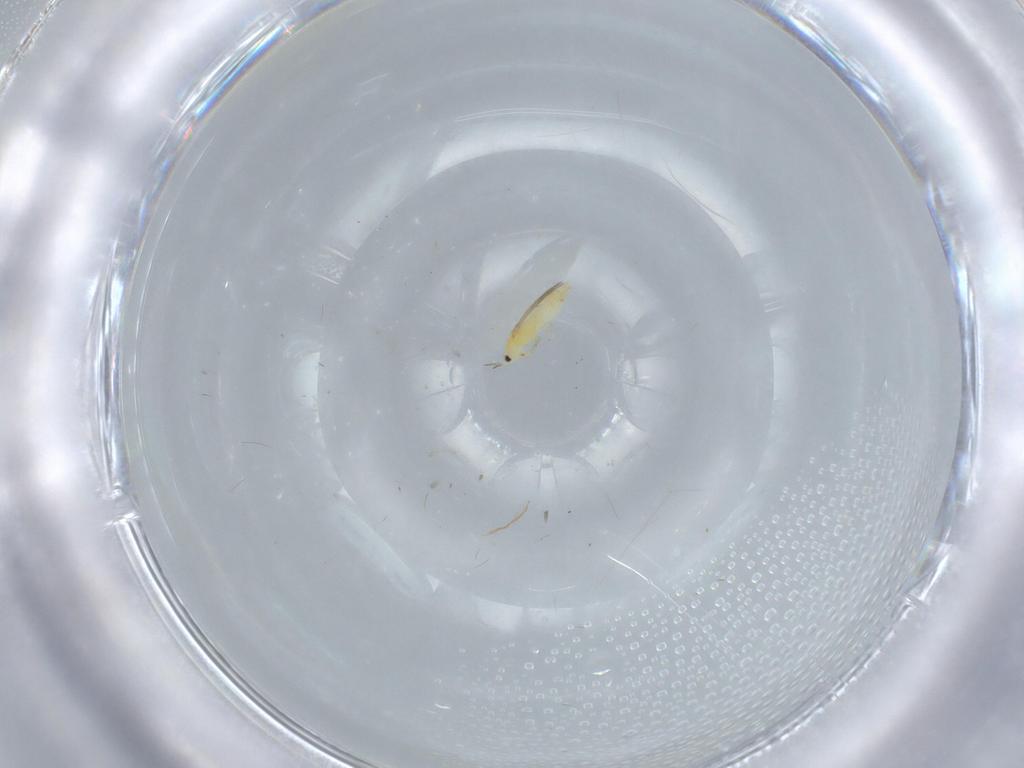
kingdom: Animalia
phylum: Arthropoda
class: Insecta
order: Thysanoptera
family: Thripidae
